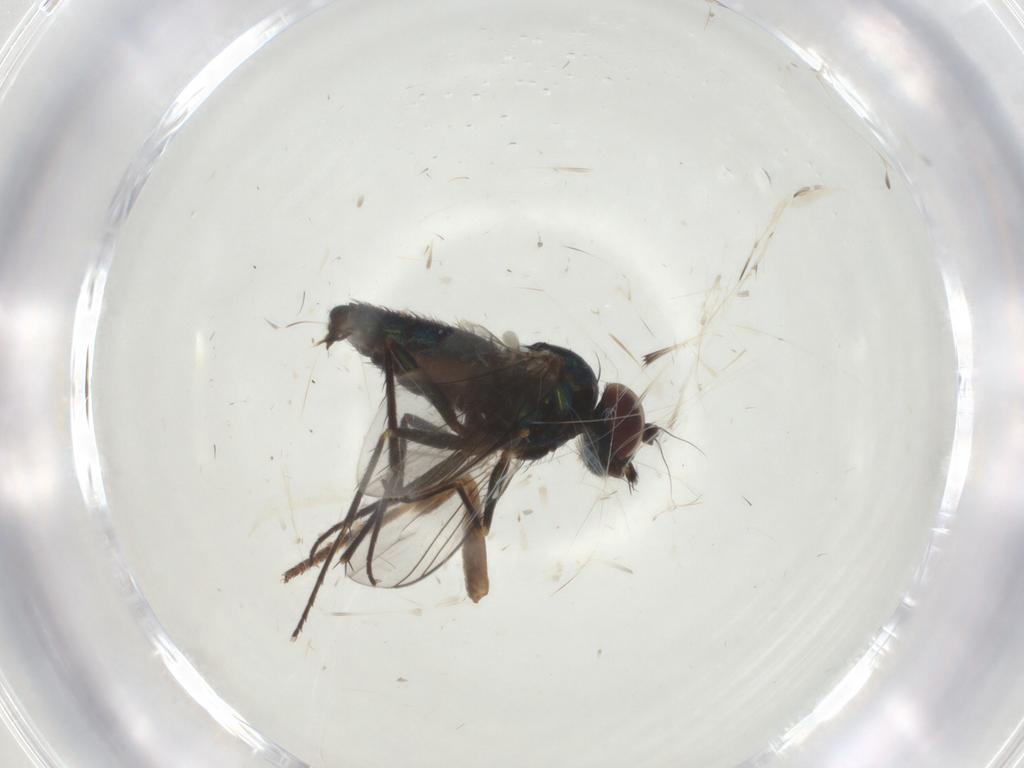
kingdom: Animalia
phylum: Arthropoda
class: Insecta
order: Diptera
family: Dolichopodidae
